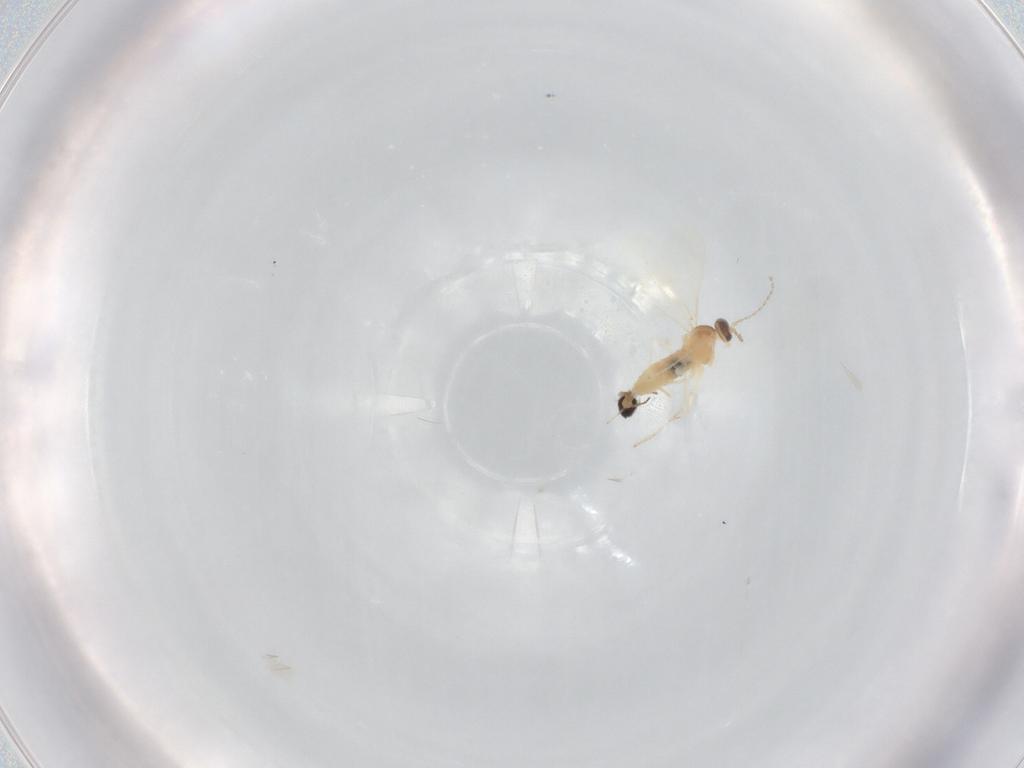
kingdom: Animalia
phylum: Arthropoda
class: Insecta
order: Diptera
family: Cecidomyiidae
